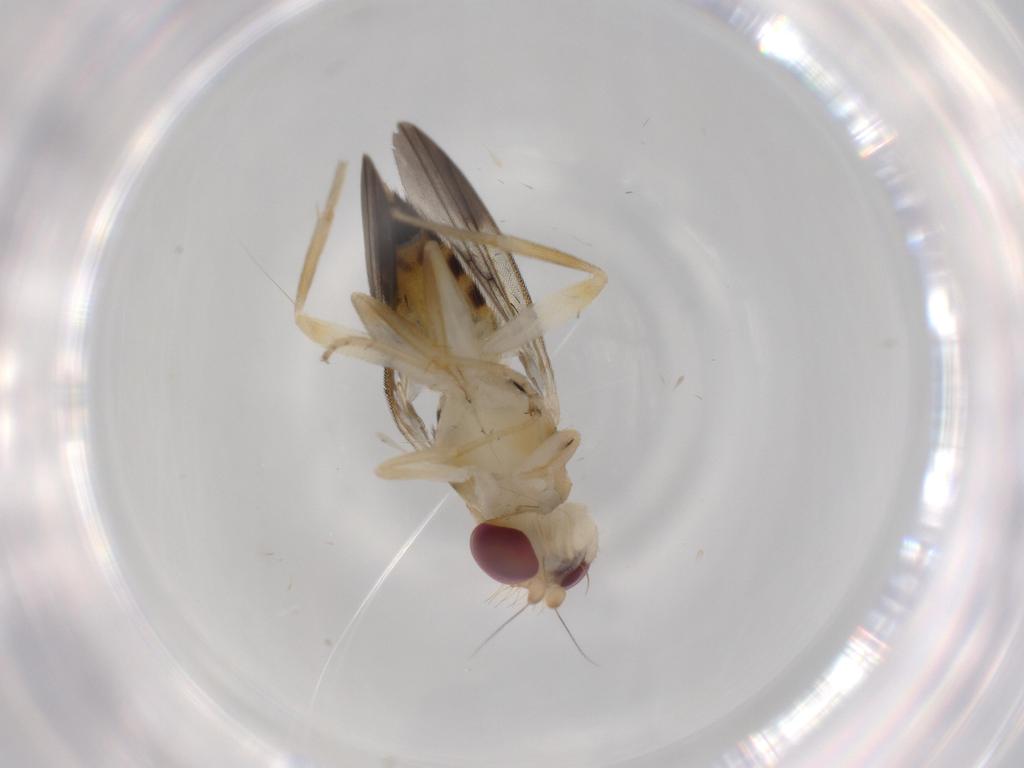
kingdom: Animalia
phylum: Arthropoda
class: Insecta
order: Diptera
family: Clusiidae
